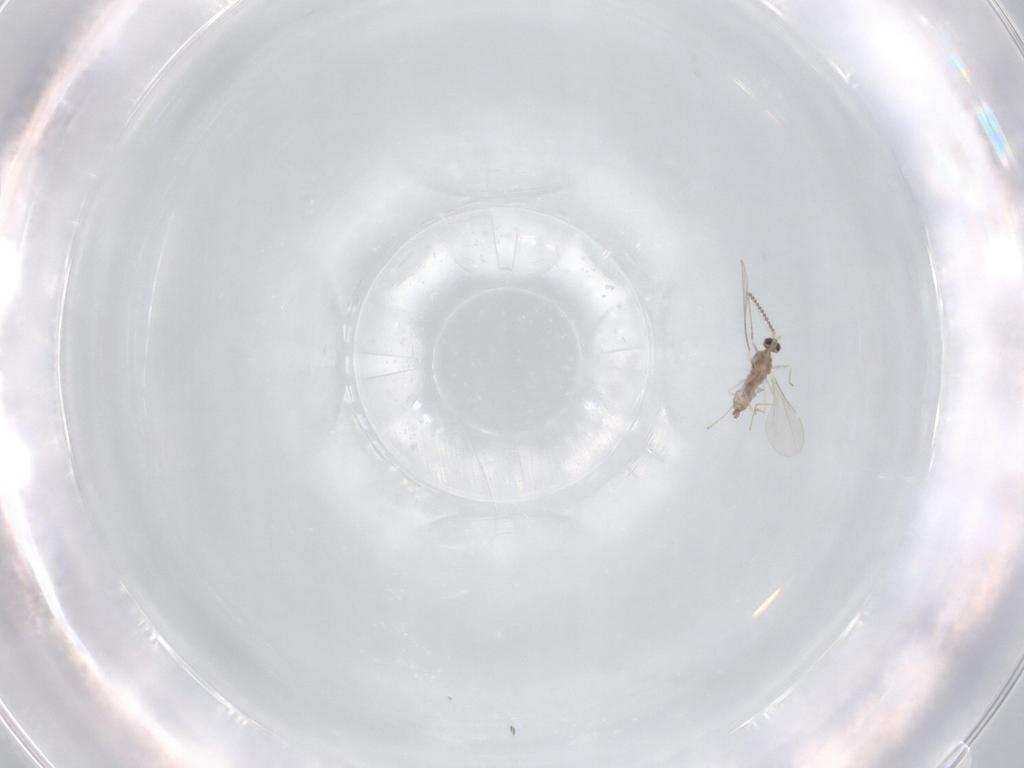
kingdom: Animalia
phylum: Arthropoda
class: Insecta
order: Diptera
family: Cecidomyiidae
